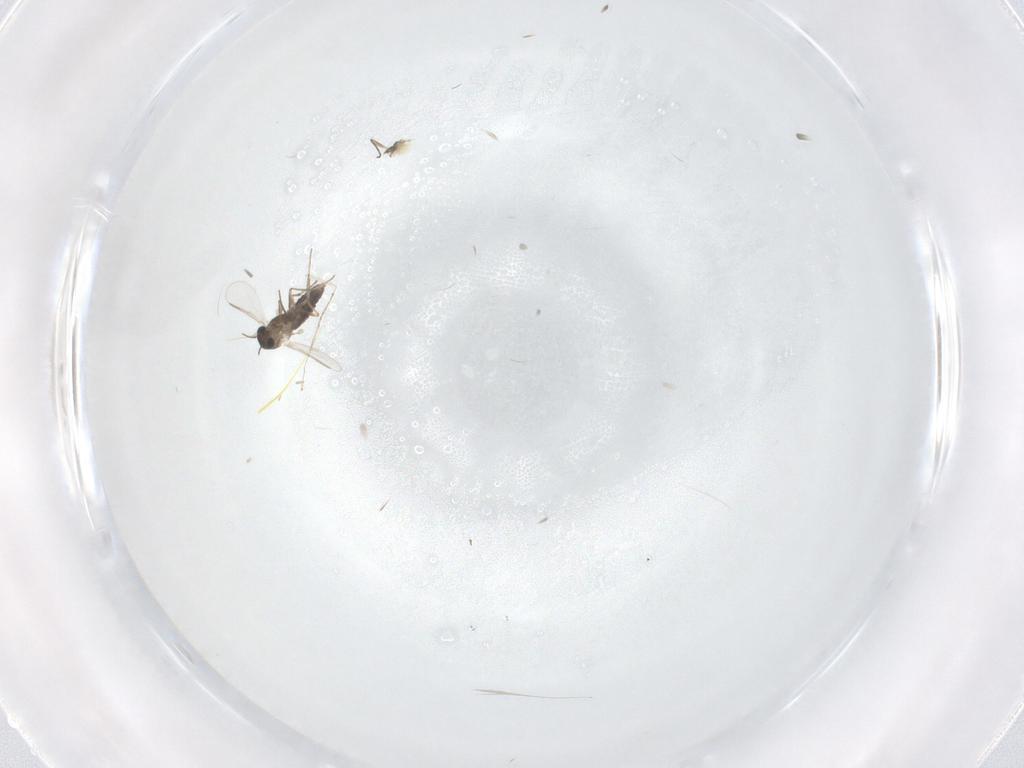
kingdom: Animalia
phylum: Arthropoda
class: Insecta
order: Diptera
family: Chironomidae
